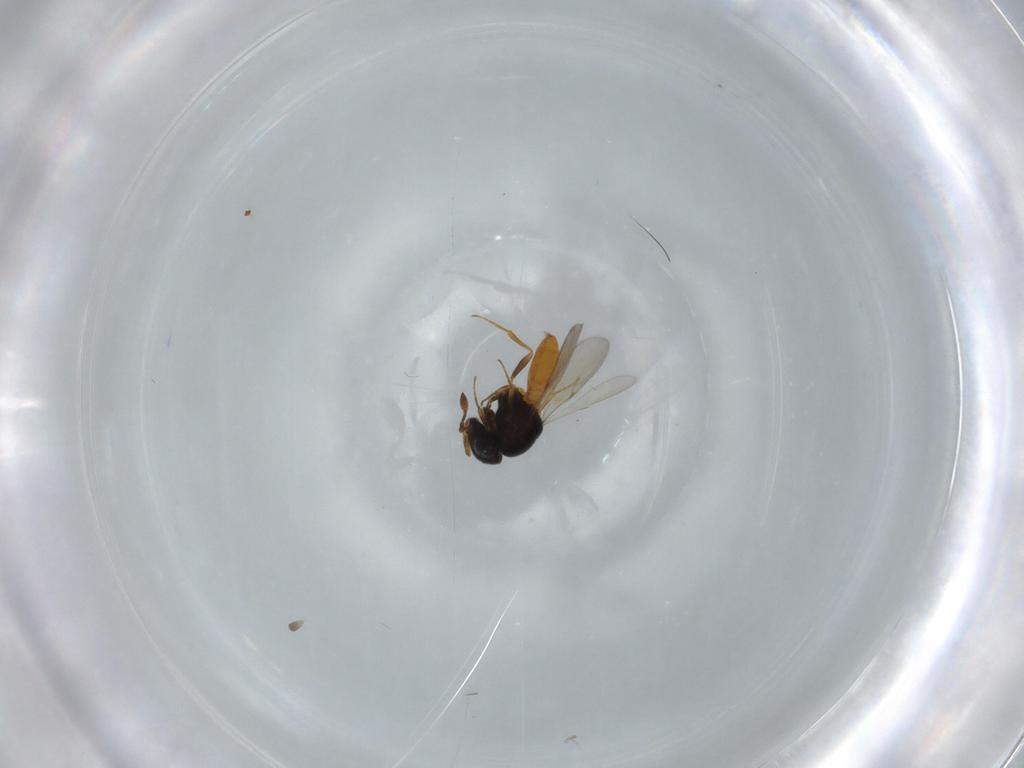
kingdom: Animalia
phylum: Arthropoda
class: Insecta
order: Hymenoptera
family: Scelionidae
